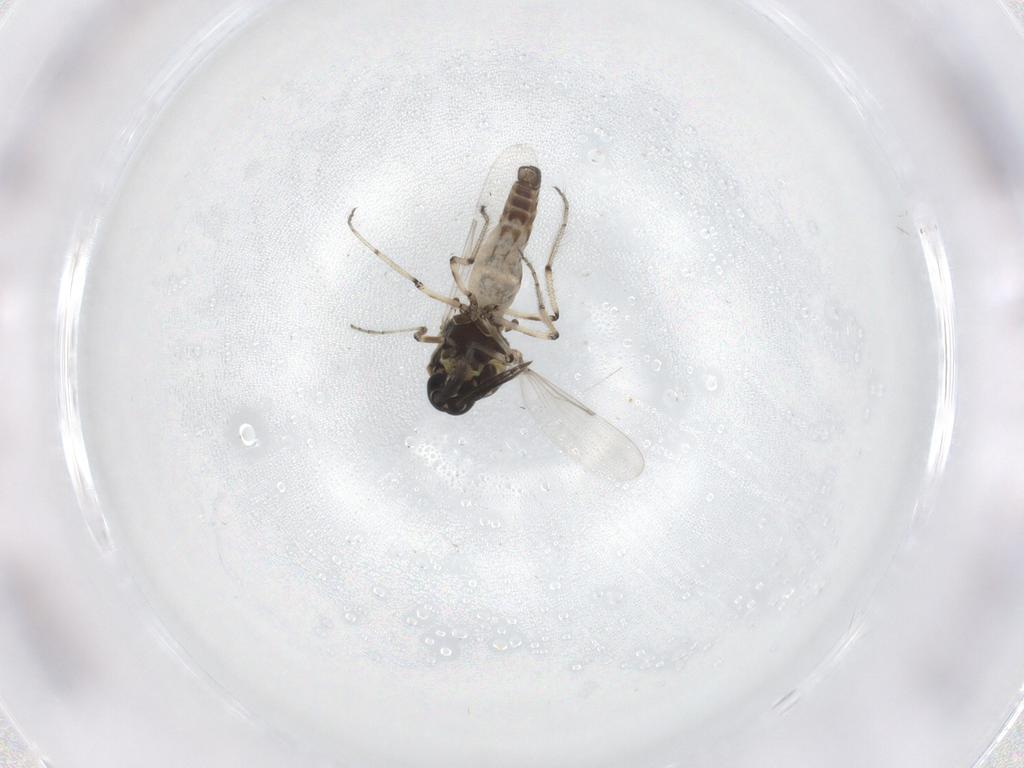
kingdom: Animalia
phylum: Arthropoda
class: Insecta
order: Diptera
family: Ceratopogonidae
